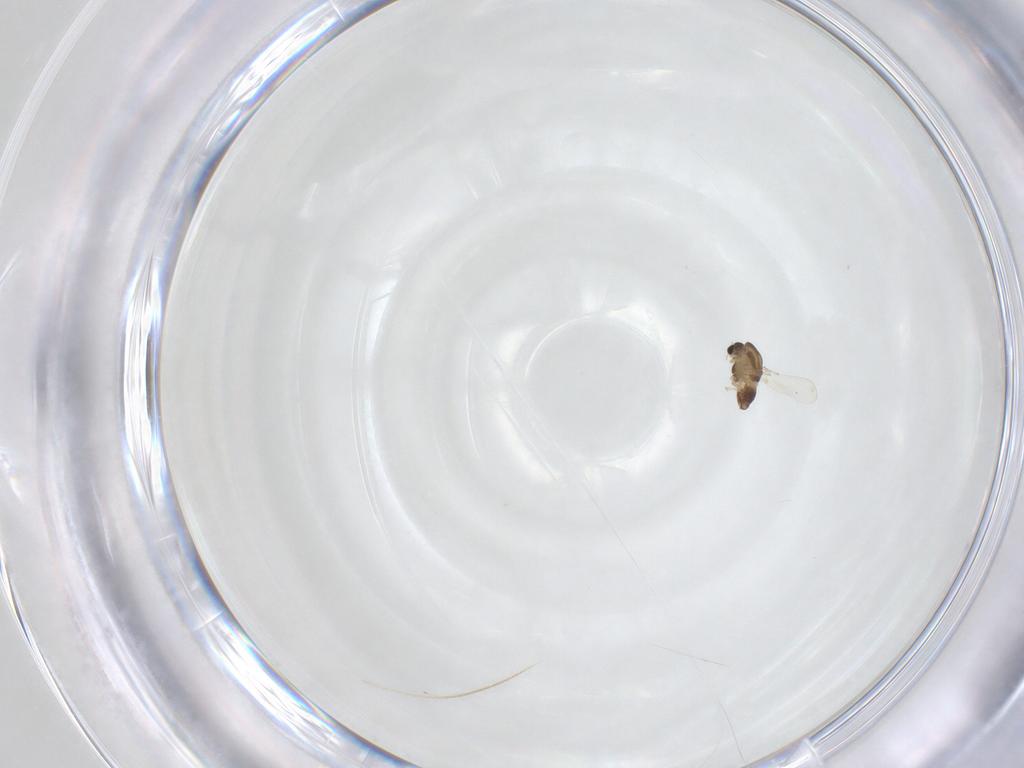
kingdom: Animalia
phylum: Arthropoda
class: Insecta
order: Diptera
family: Chironomidae
